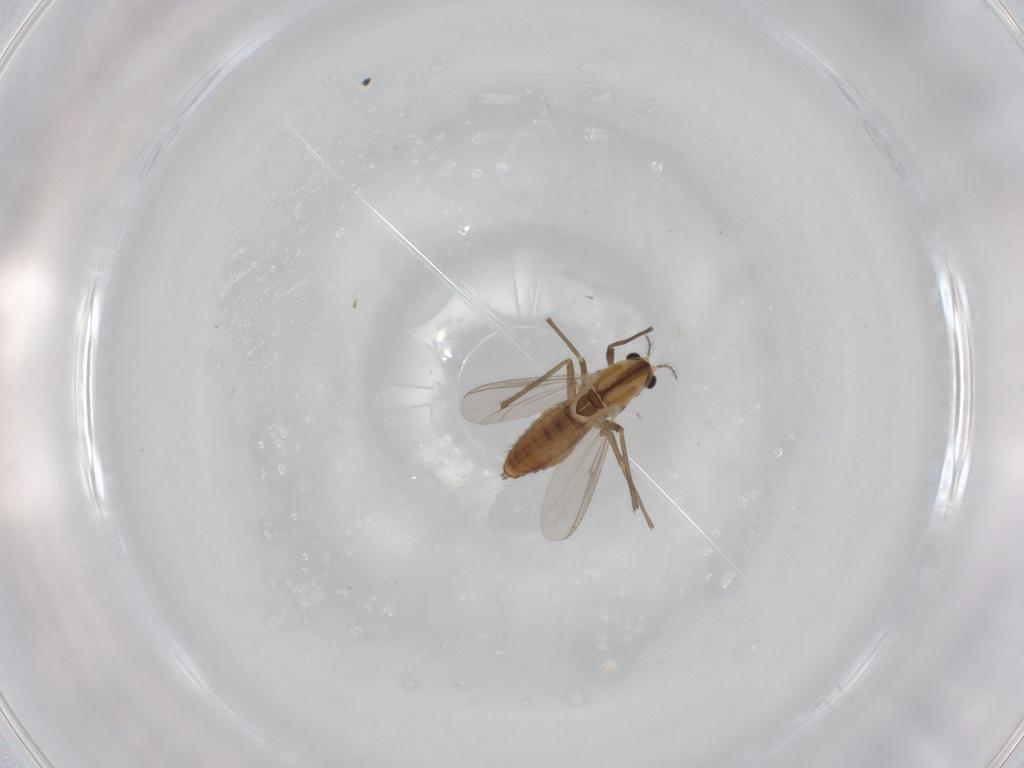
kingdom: Animalia
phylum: Arthropoda
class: Insecta
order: Diptera
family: Chironomidae
